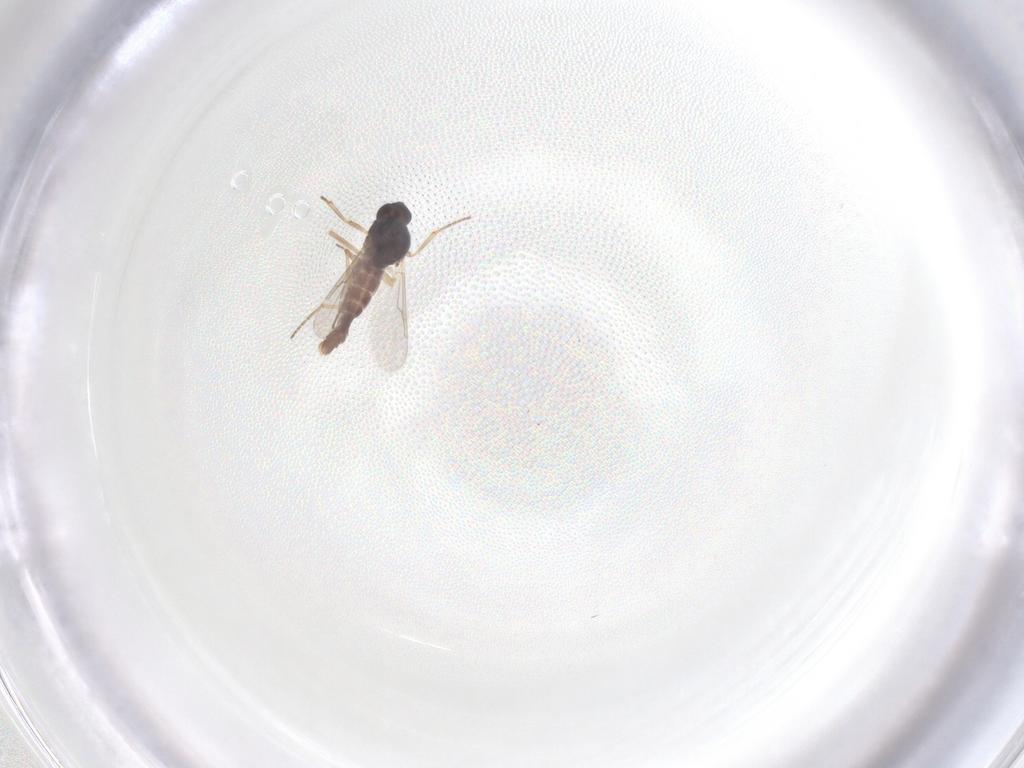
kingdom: Animalia
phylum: Arthropoda
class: Insecta
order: Diptera
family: Ceratopogonidae
